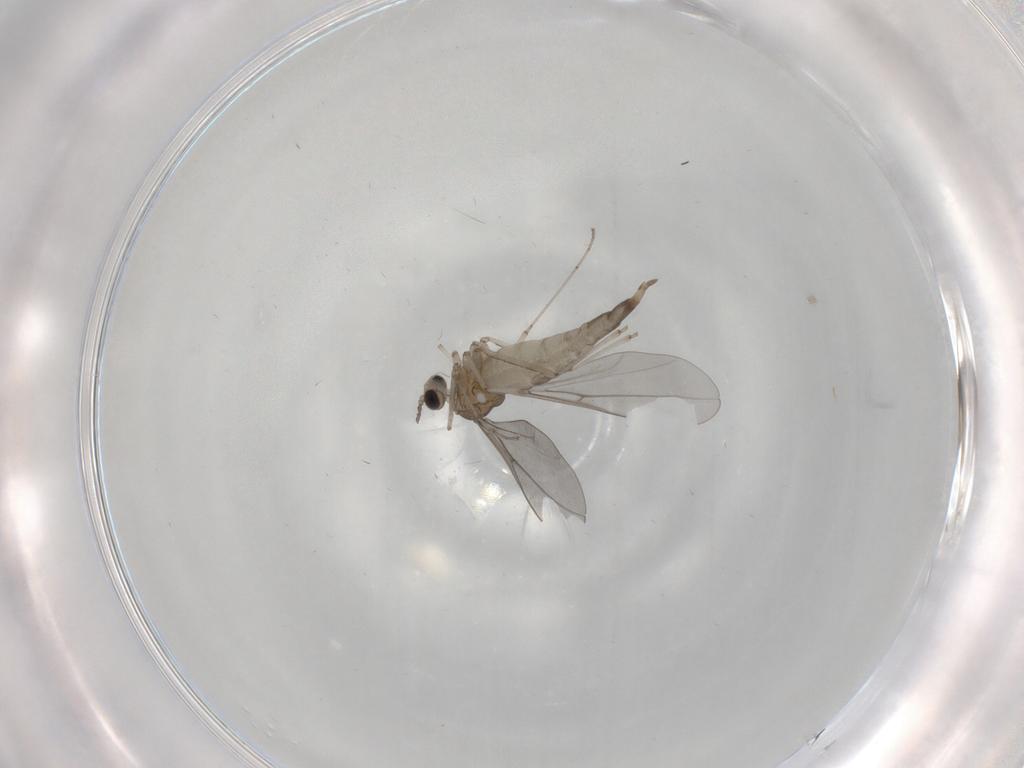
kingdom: Animalia
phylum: Arthropoda
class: Insecta
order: Diptera
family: Cecidomyiidae
